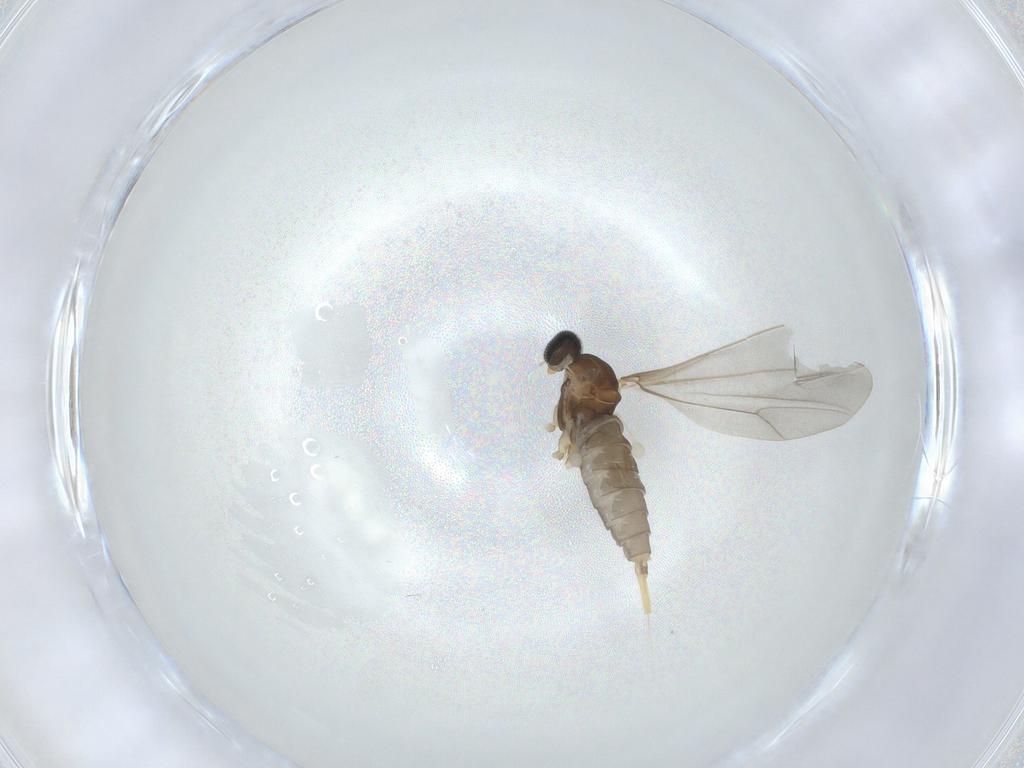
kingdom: Animalia
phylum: Arthropoda
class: Insecta
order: Diptera
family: Cecidomyiidae
